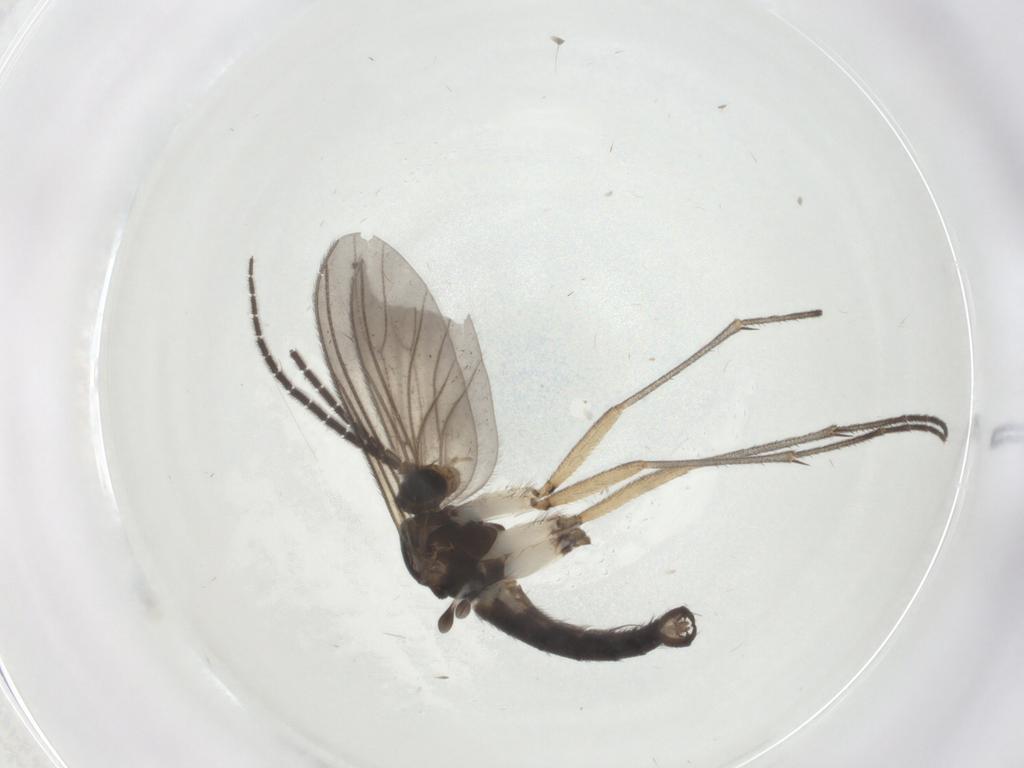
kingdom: Animalia
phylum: Arthropoda
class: Insecta
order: Diptera
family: Sciaridae
